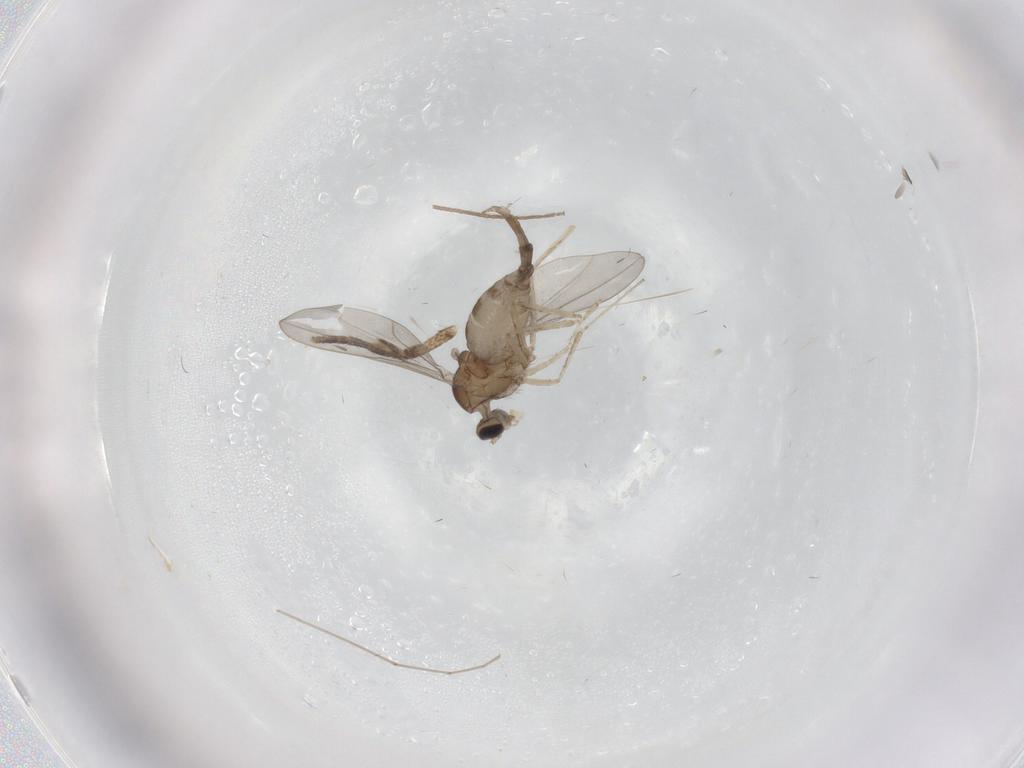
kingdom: Animalia
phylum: Arthropoda
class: Insecta
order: Diptera
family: Cecidomyiidae
